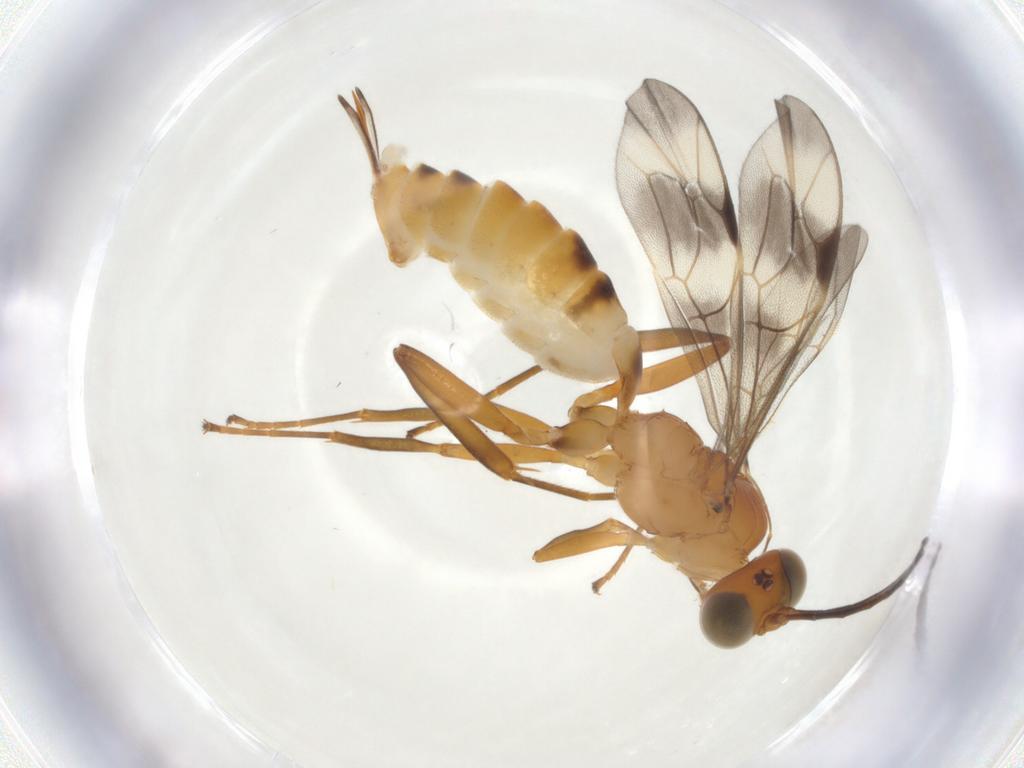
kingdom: Animalia
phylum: Arthropoda
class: Insecta
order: Hymenoptera
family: Ichneumonidae
